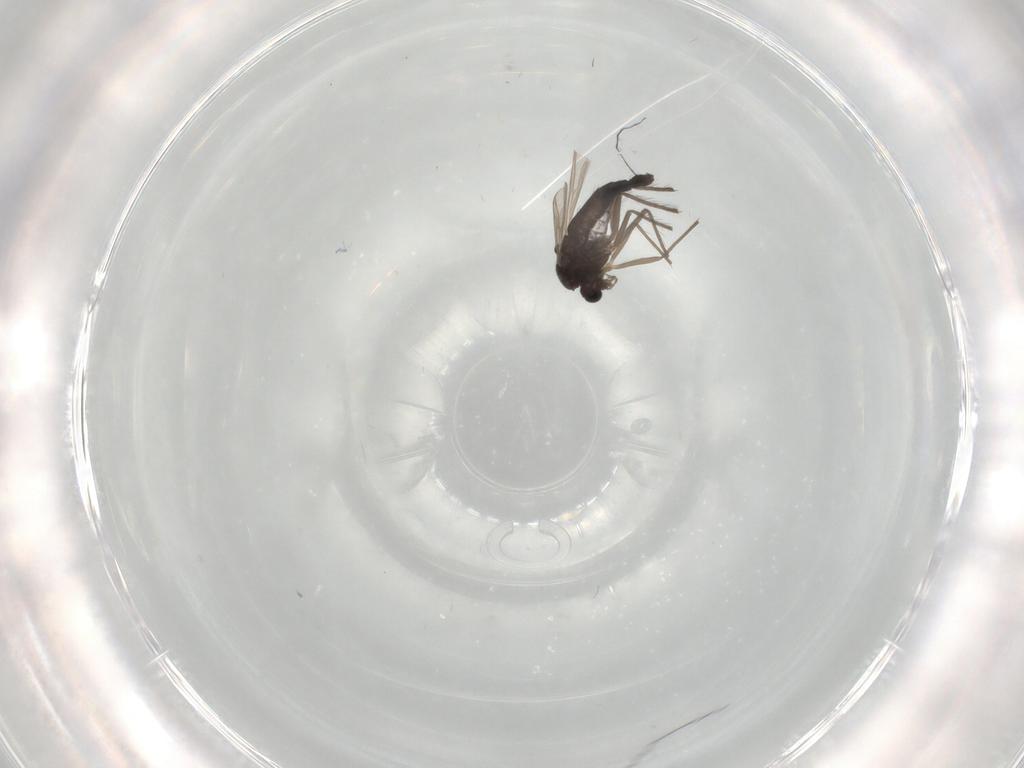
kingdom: Animalia
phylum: Arthropoda
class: Insecta
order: Diptera
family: Chironomidae
